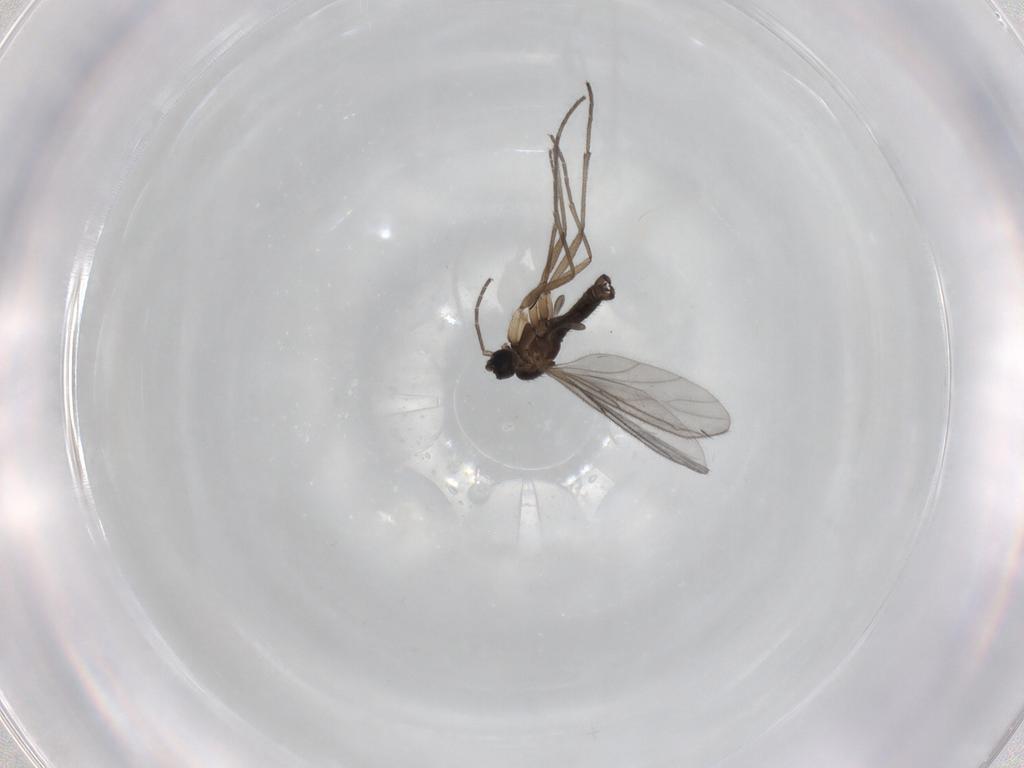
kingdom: Animalia
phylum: Arthropoda
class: Insecta
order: Diptera
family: Sciaridae
